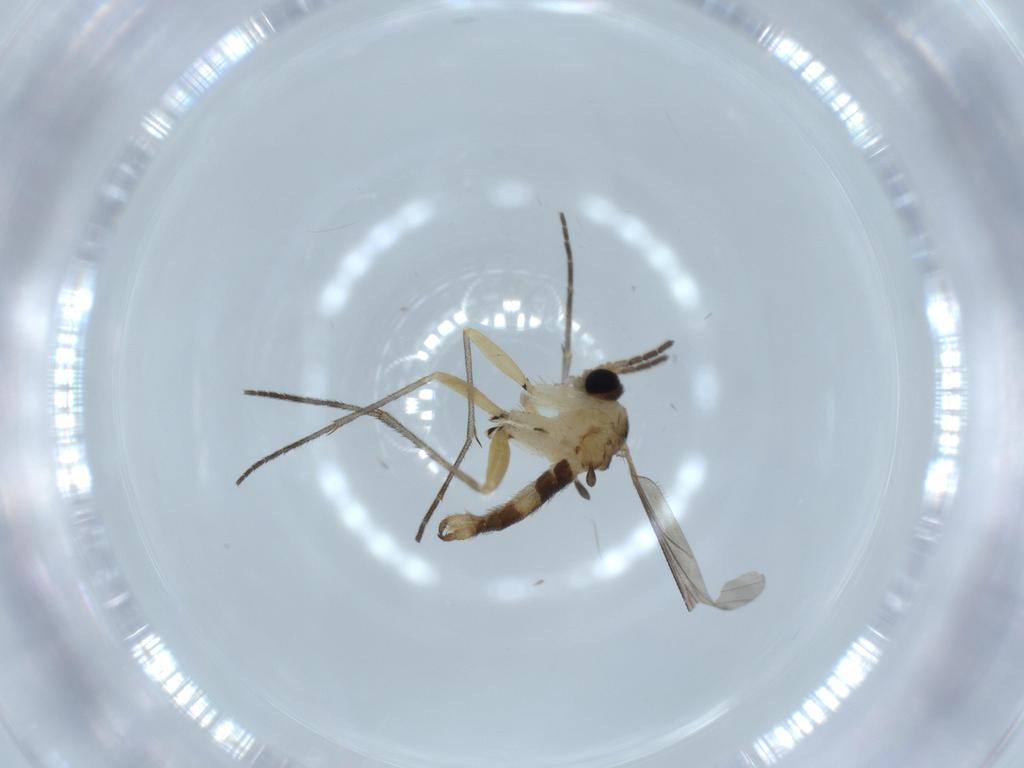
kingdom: Animalia
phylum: Arthropoda
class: Insecta
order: Diptera
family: Sciaridae
